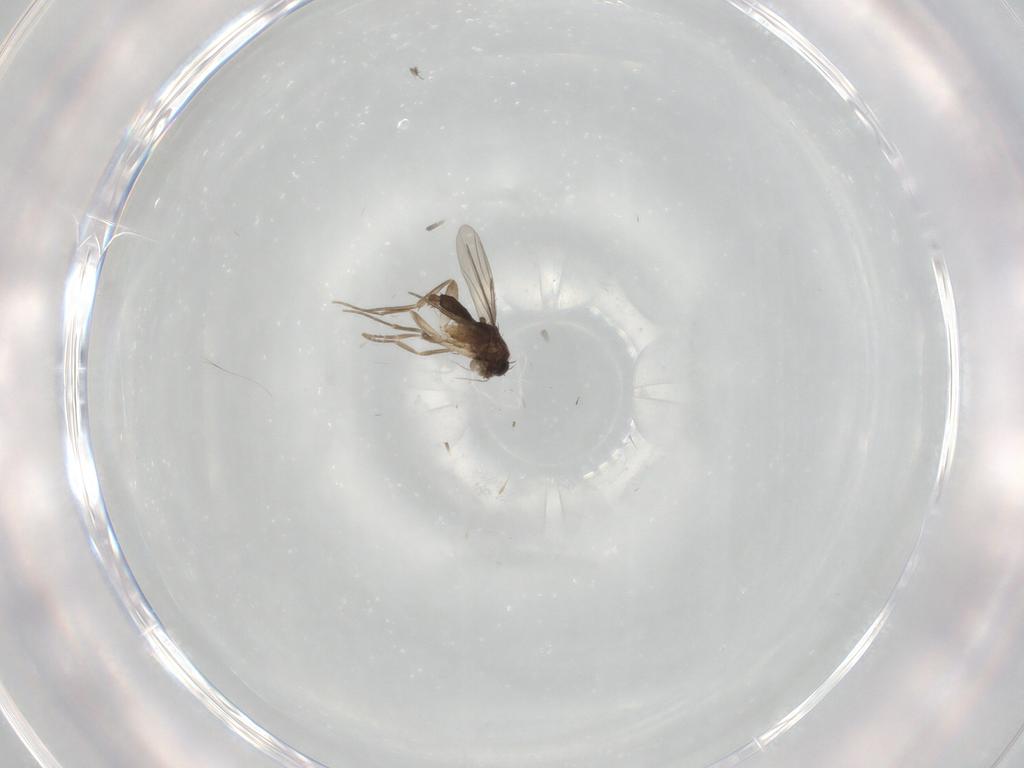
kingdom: Animalia
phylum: Arthropoda
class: Insecta
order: Diptera
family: Phoridae
